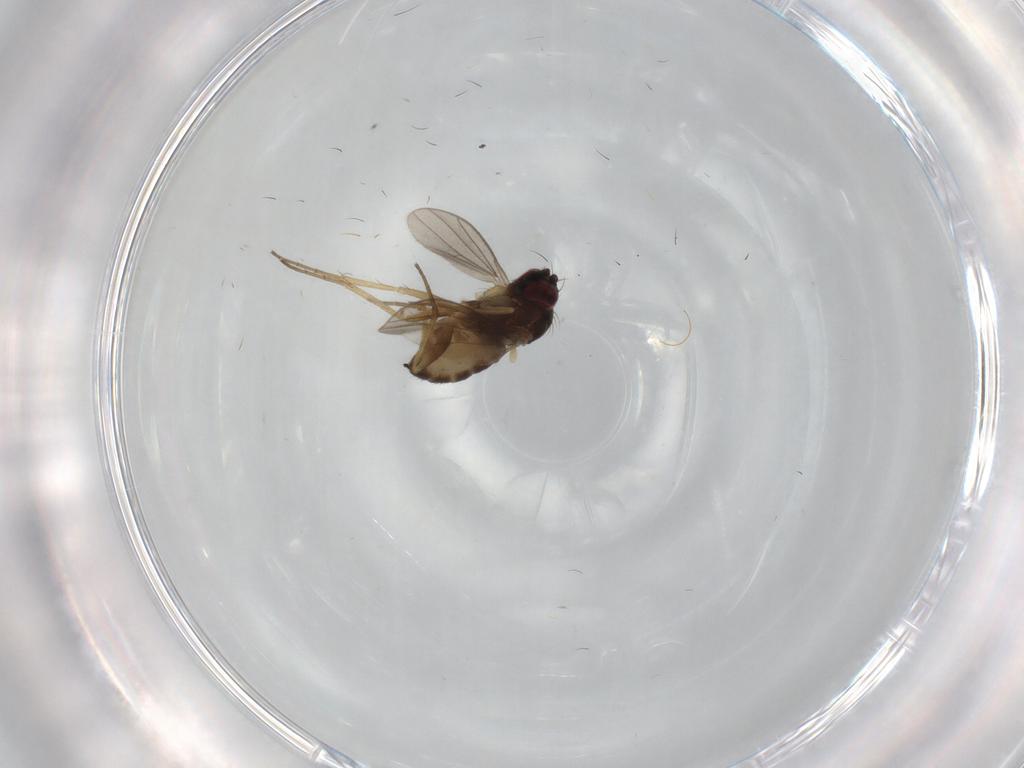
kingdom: Animalia
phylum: Arthropoda
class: Insecta
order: Diptera
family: Dolichopodidae
